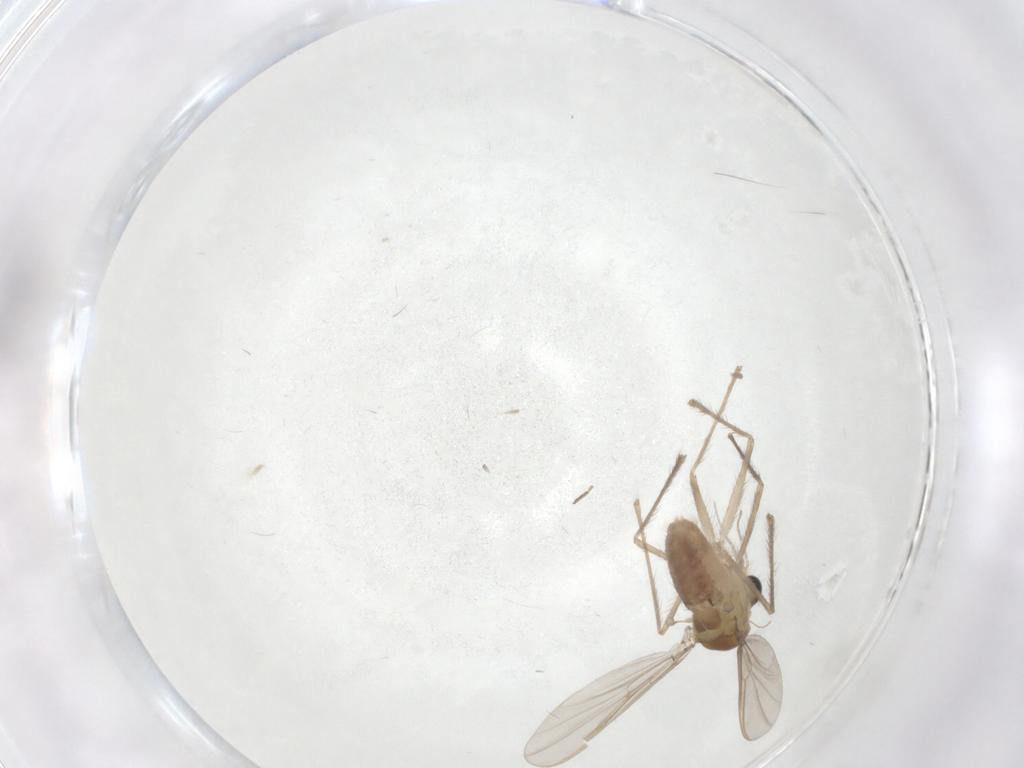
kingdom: Animalia
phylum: Arthropoda
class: Insecta
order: Diptera
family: Chironomidae
